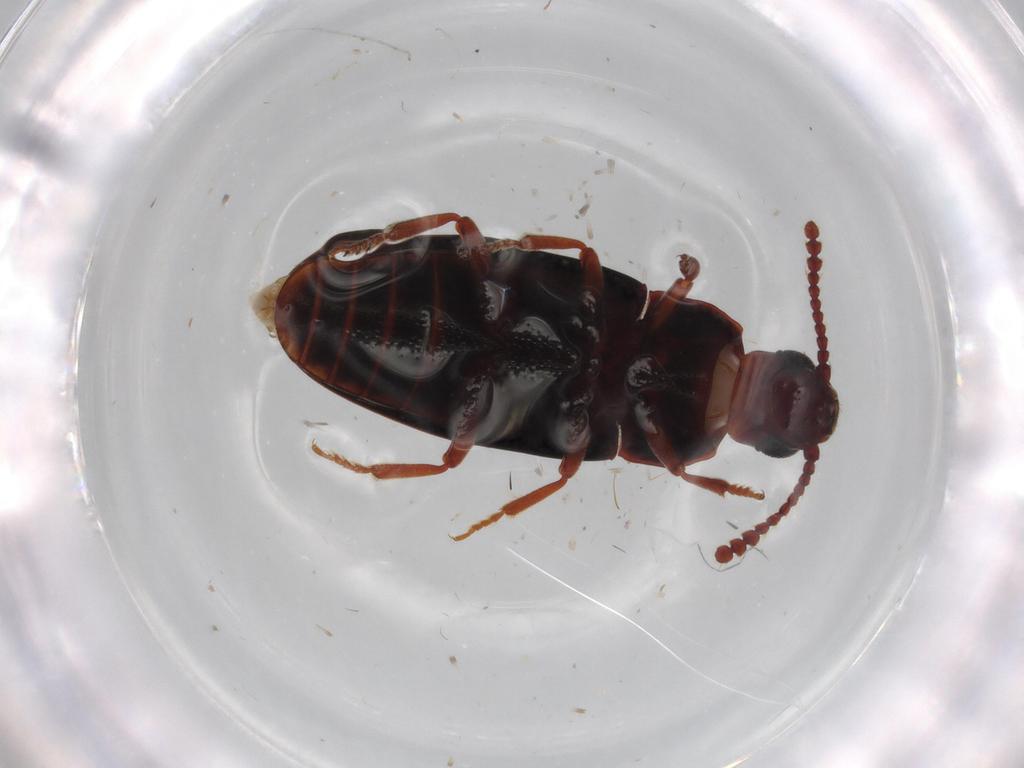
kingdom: Animalia
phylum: Arthropoda
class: Insecta
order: Coleoptera
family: Erotylidae
